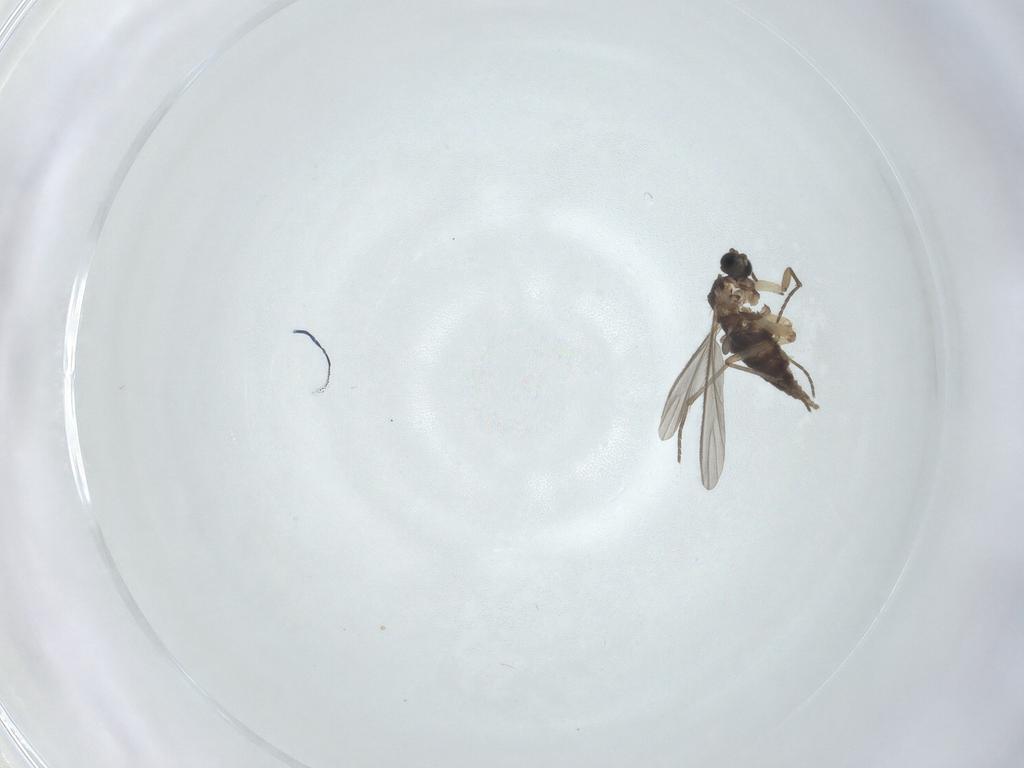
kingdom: Animalia
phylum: Arthropoda
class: Insecta
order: Diptera
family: Sciaridae
